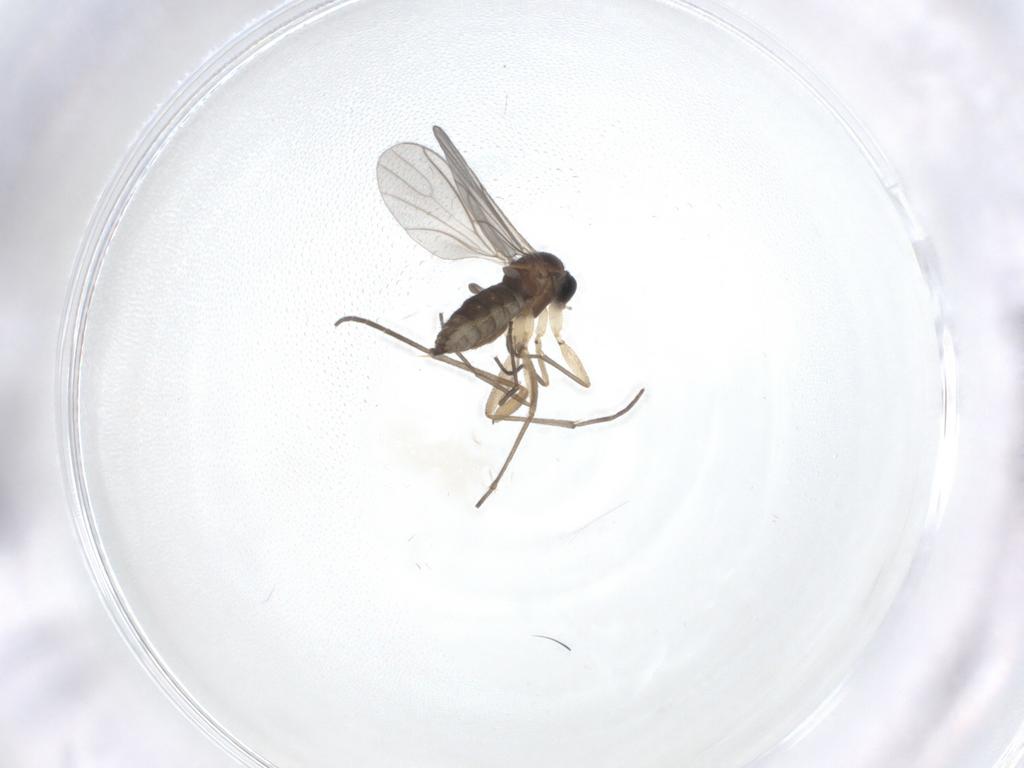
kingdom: Animalia
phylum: Arthropoda
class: Insecta
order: Diptera
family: Sciaridae
